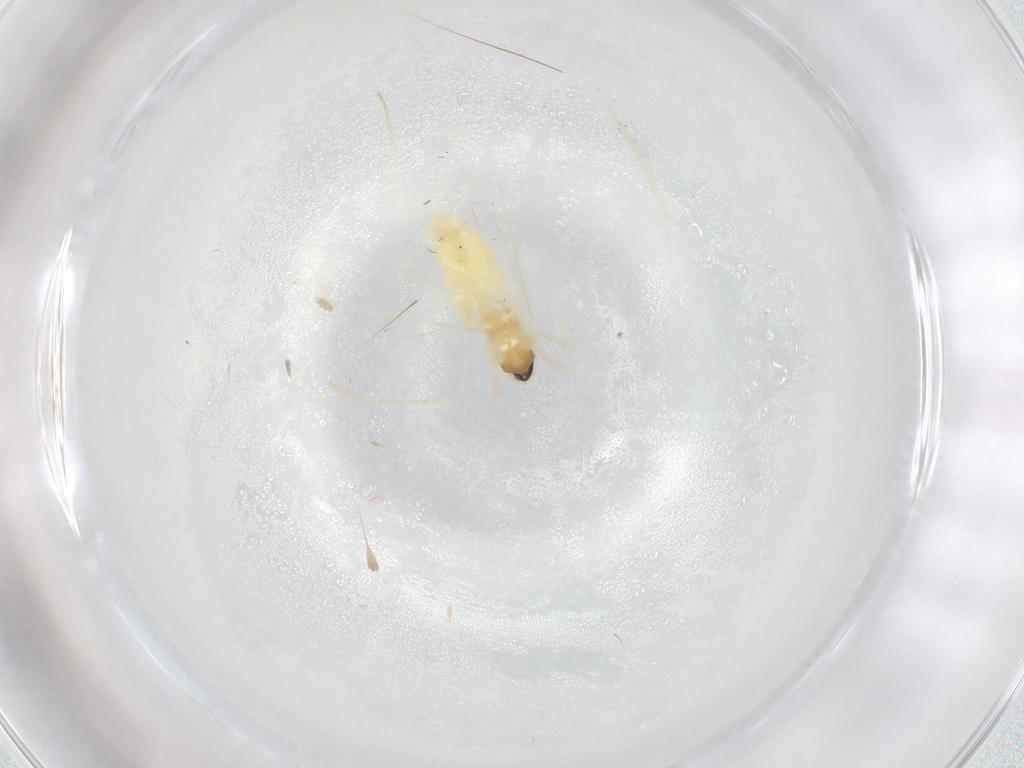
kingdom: Animalia
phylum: Arthropoda
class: Insecta
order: Diptera
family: Cecidomyiidae
